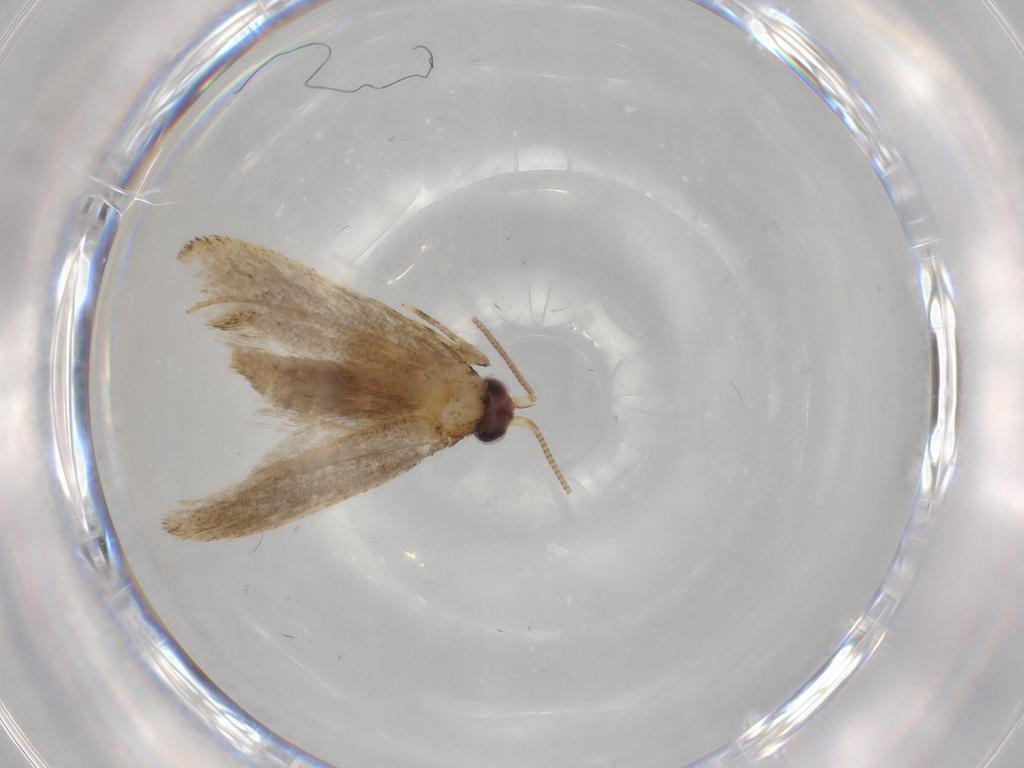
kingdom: Animalia
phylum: Arthropoda
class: Insecta
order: Lepidoptera
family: Nepticulidae
